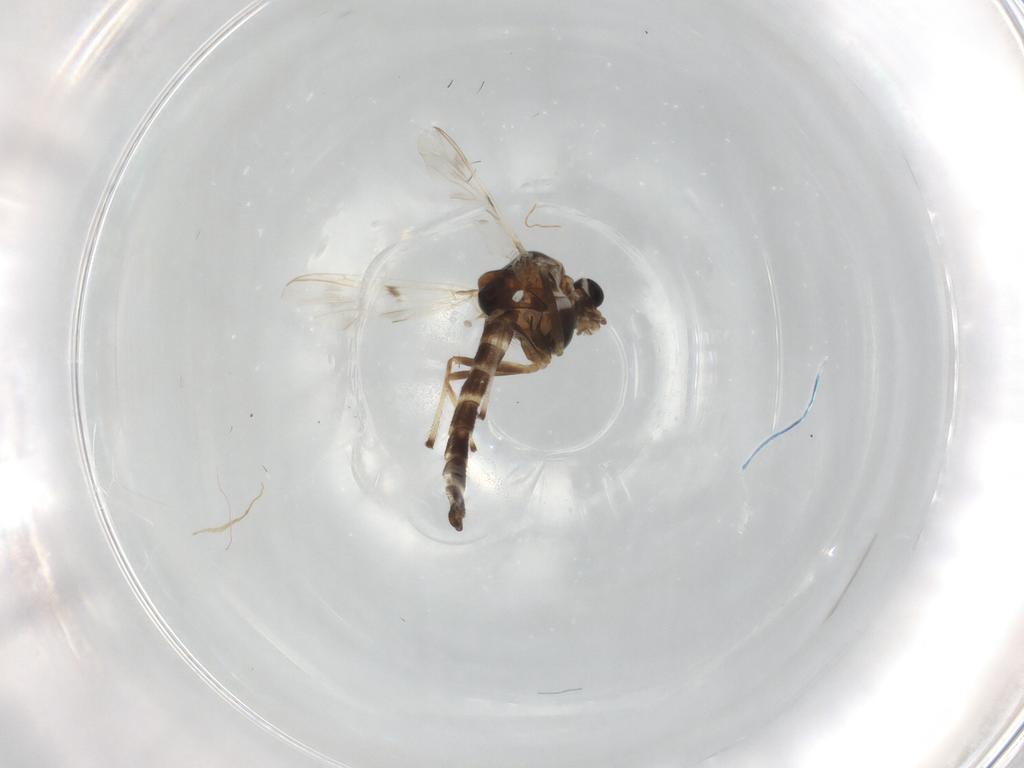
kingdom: Animalia
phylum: Arthropoda
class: Insecta
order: Diptera
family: Chironomidae
